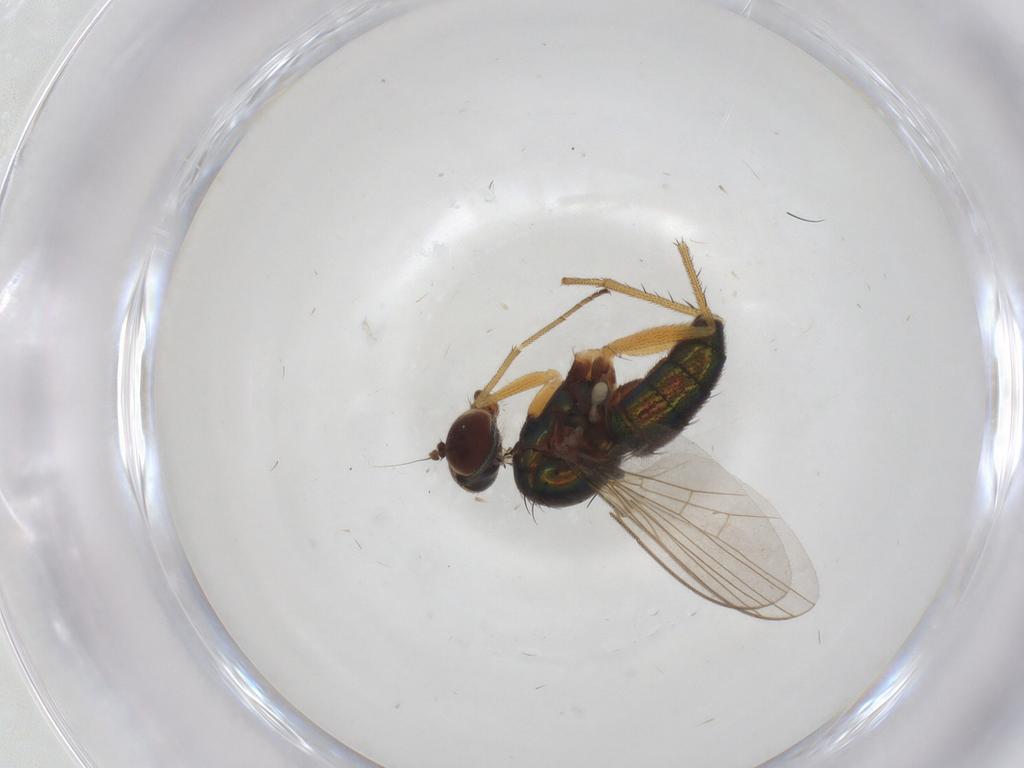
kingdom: Animalia
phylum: Arthropoda
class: Insecta
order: Diptera
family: Dolichopodidae
